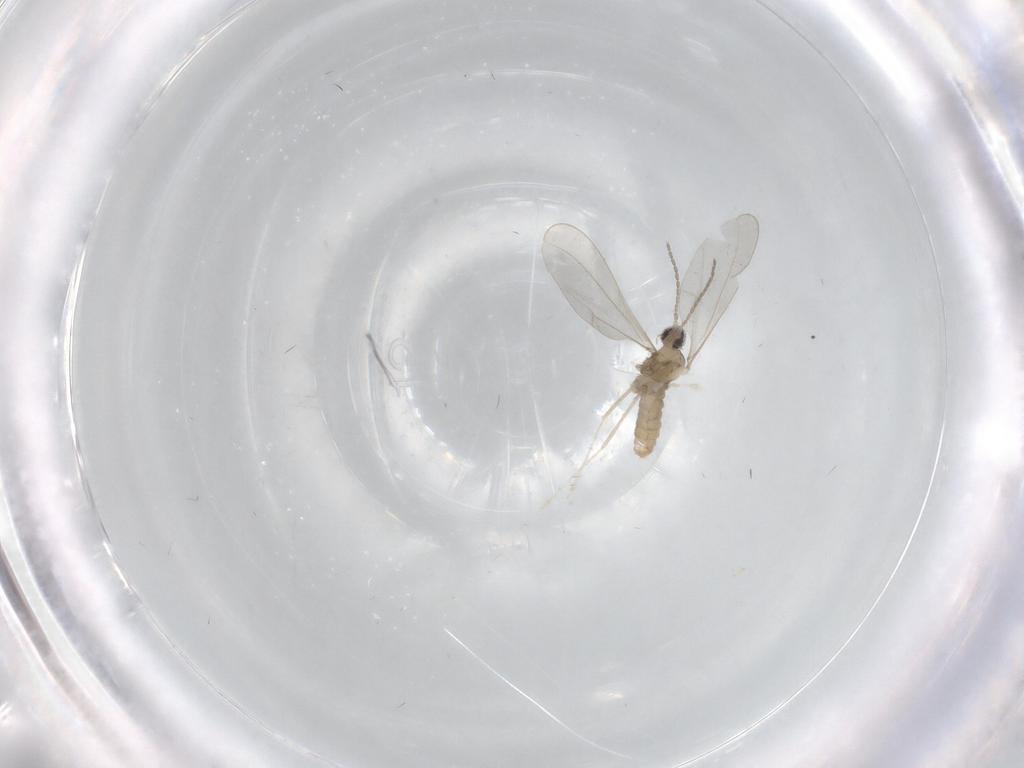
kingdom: Animalia
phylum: Arthropoda
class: Insecta
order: Diptera
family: Cecidomyiidae
